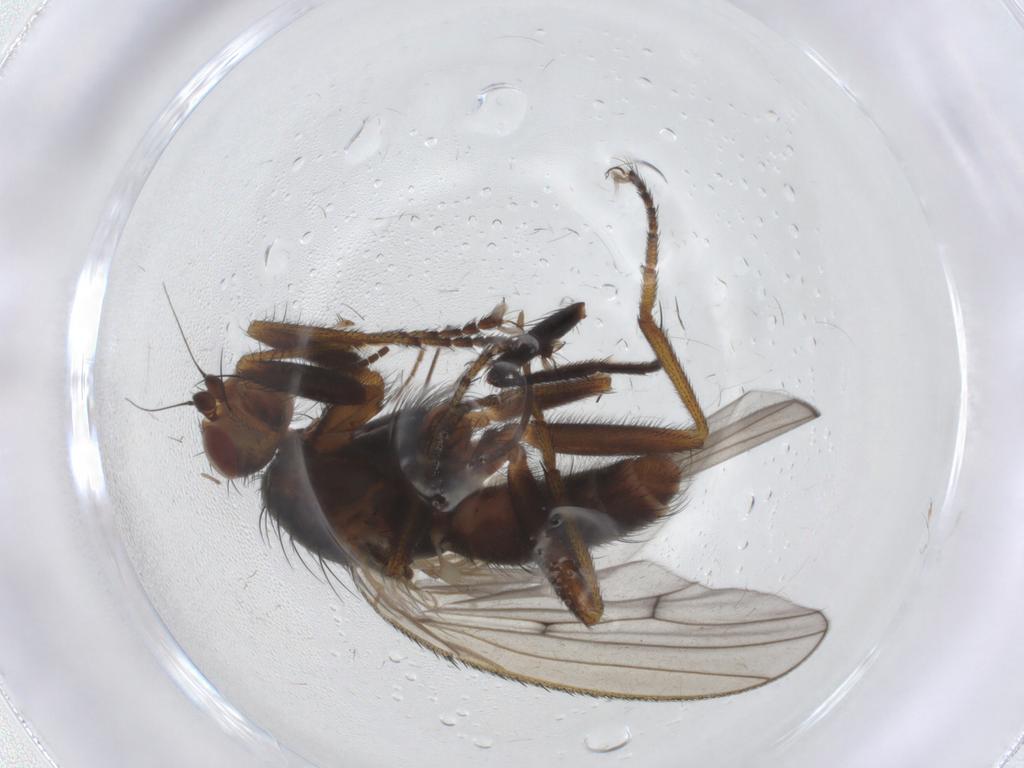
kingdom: Animalia
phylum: Arthropoda
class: Insecta
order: Diptera
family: Heleomyzidae
